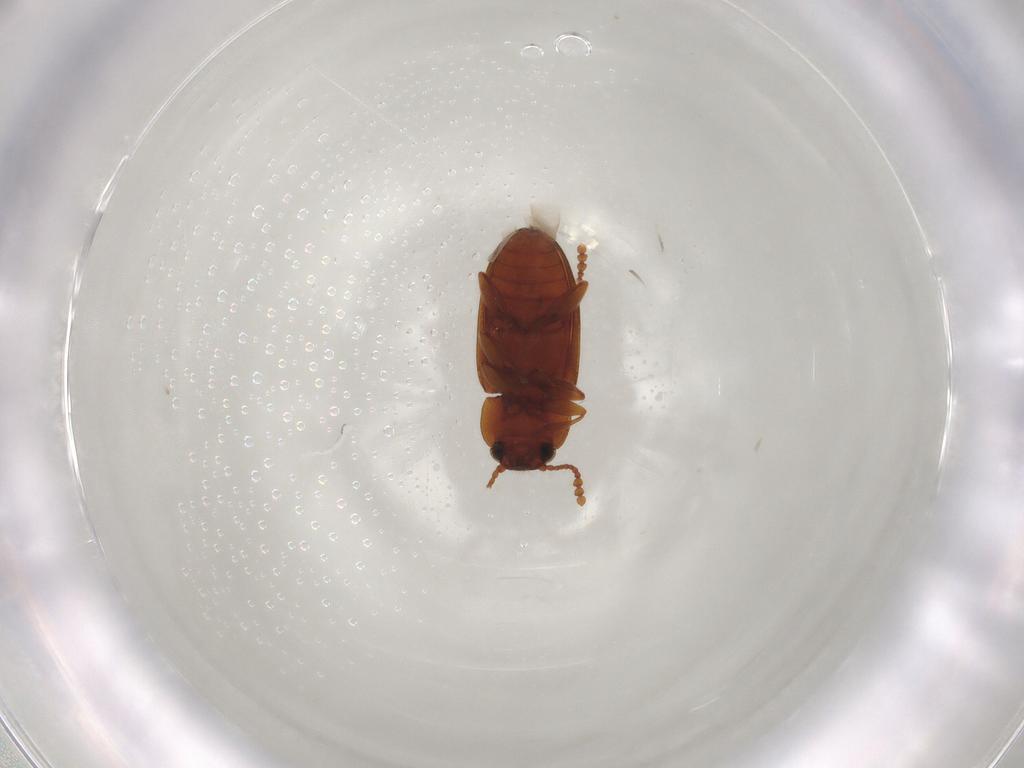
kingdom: Animalia
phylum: Arthropoda
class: Insecta
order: Coleoptera
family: Erotylidae
